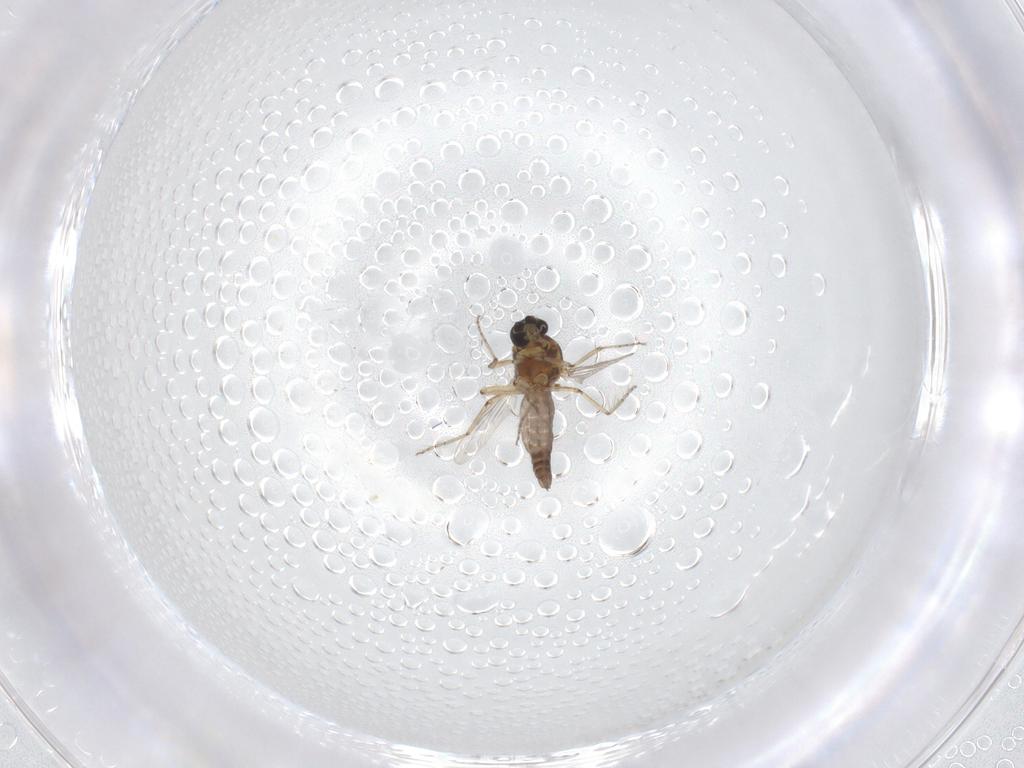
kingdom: Animalia
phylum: Arthropoda
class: Insecta
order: Diptera
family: Ceratopogonidae
